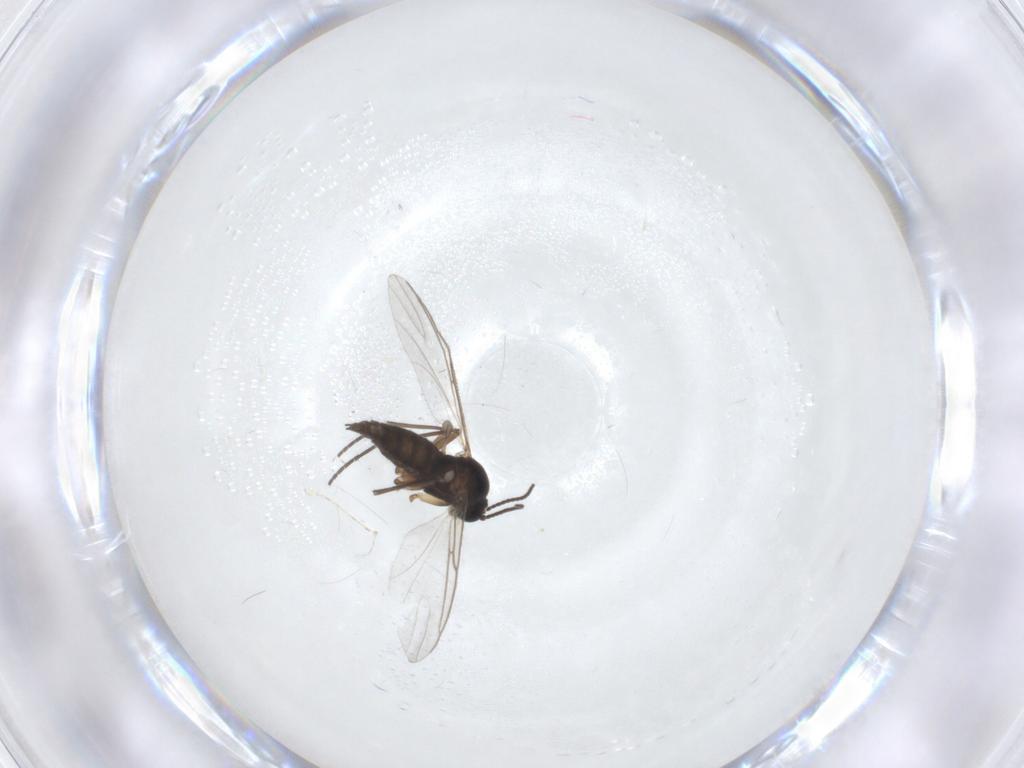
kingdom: Animalia
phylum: Arthropoda
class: Insecta
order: Diptera
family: Sciaridae
